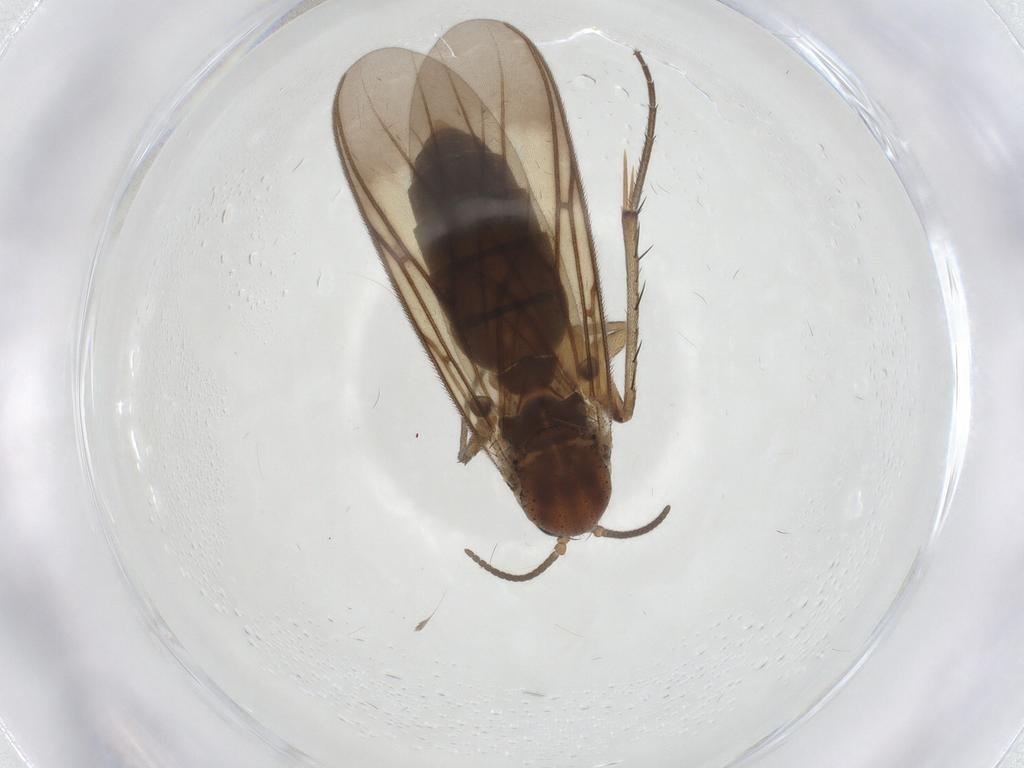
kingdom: Animalia
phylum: Arthropoda
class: Insecta
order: Diptera
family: Mycetophilidae
